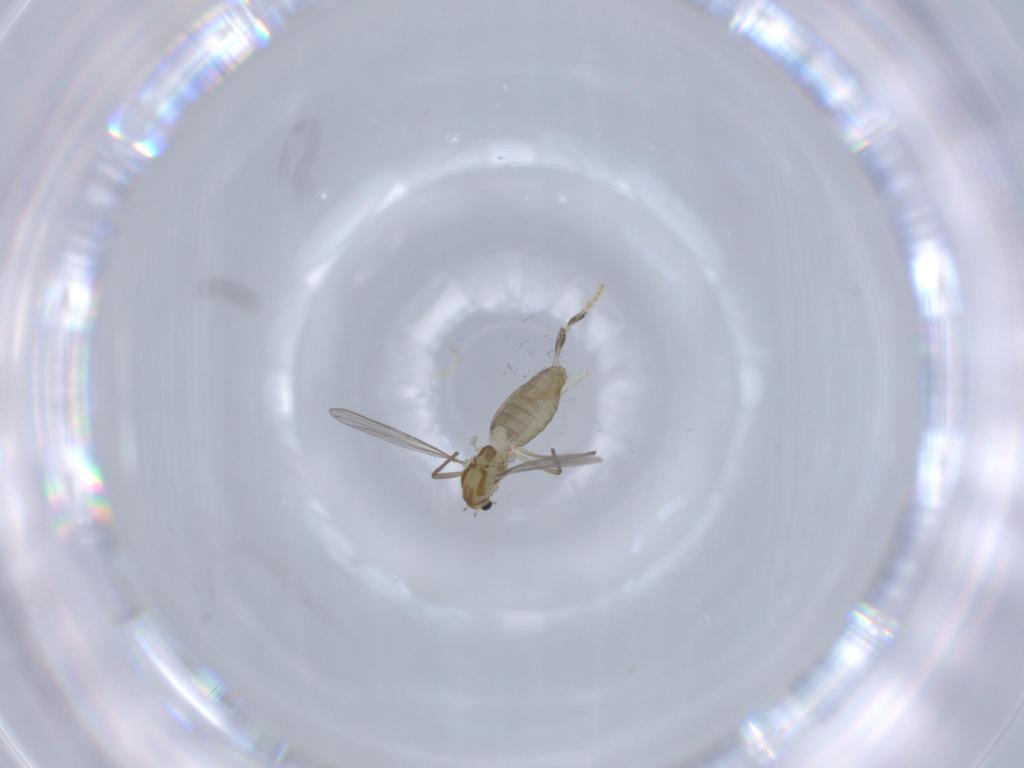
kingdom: Animalia
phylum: Arthropoda
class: Insecta
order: Diptera
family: Chironomidae
